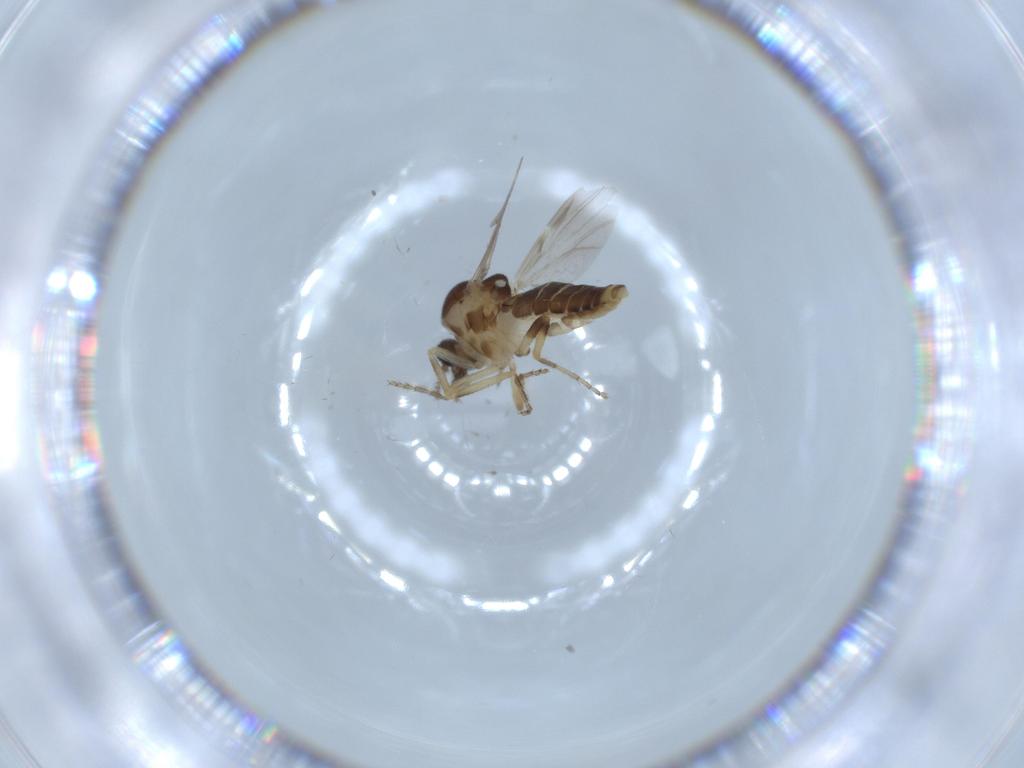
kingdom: Animalia
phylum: Arthropoda
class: Insecta
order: Diptera
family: Ceratopogonidae
